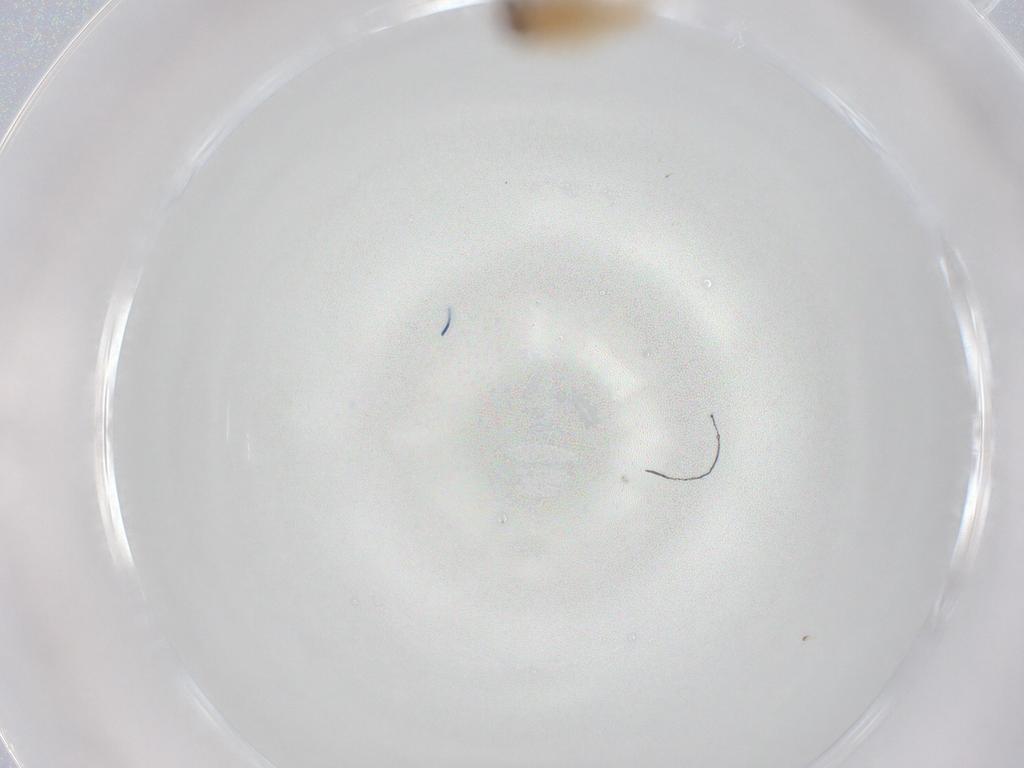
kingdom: Animalia
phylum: Arthropoda
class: Insecta
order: Lepidoptera
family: Nepticulidae
